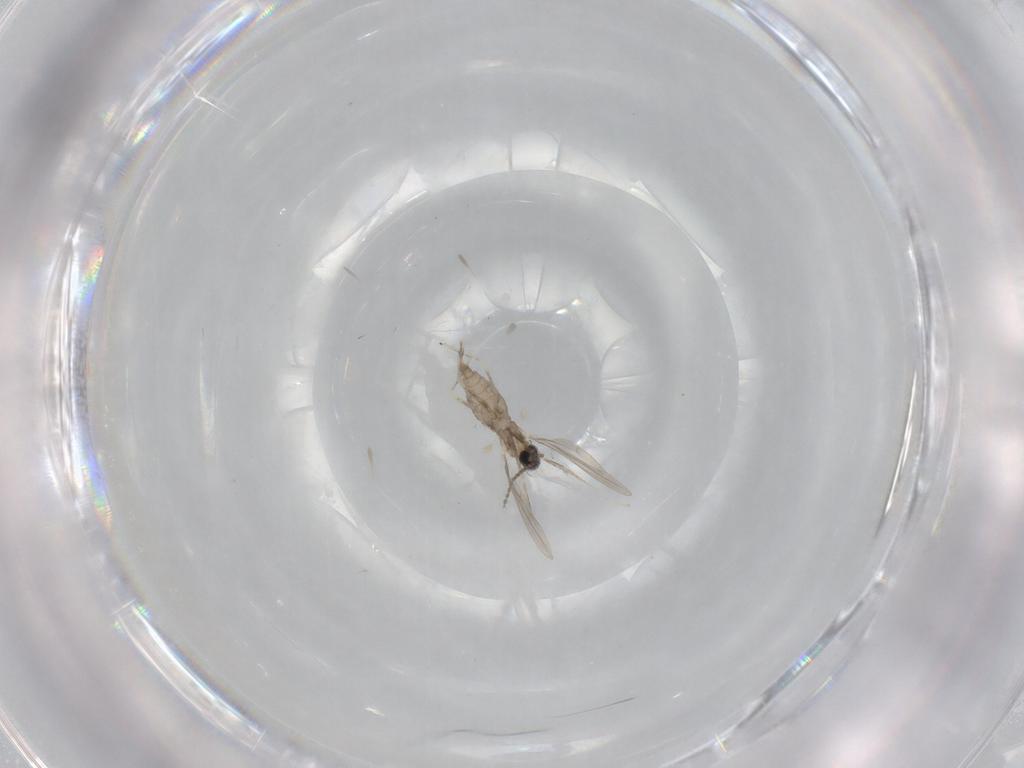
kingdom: Animalia
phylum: Arthropoda
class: Insecta
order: Diptera
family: Cecidomyiidae
